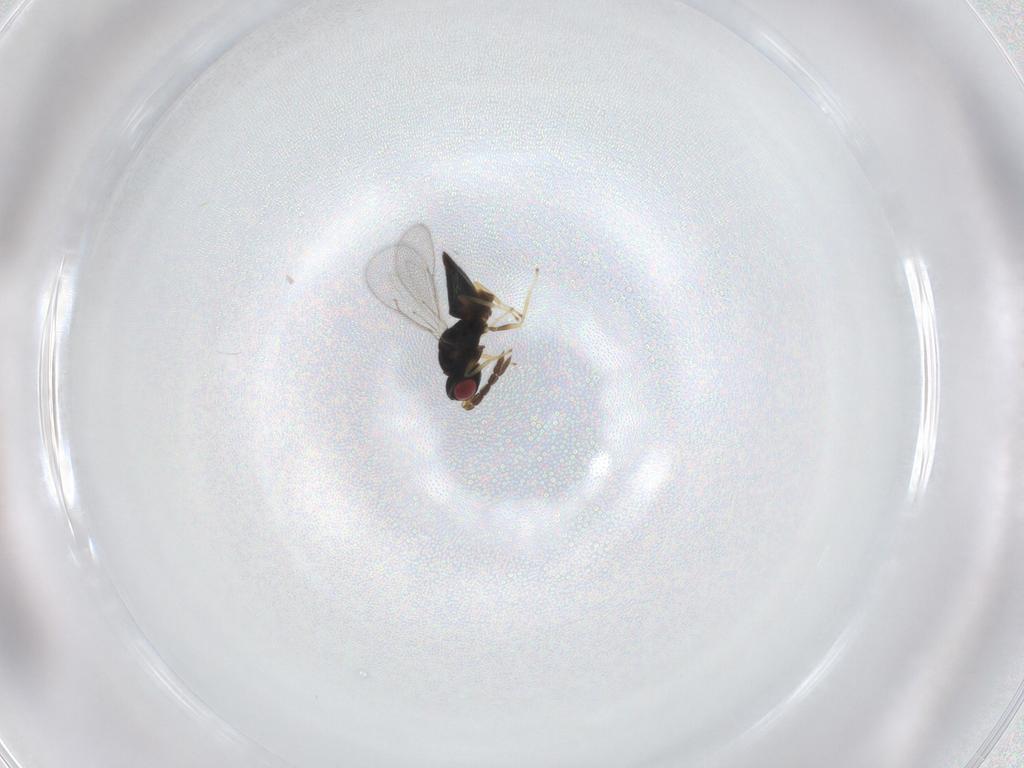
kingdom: Animalia
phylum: Arthropoda
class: Insecta
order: Hymenoptera
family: Eulophidae
